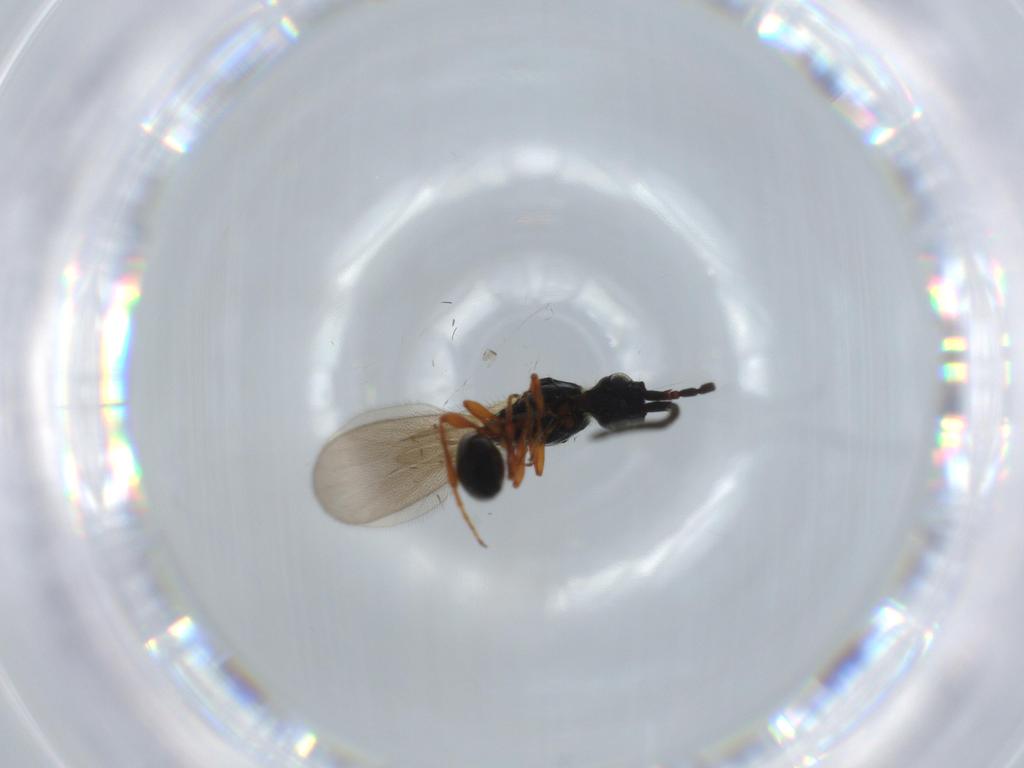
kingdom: Animalia
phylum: Arthropoda
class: Insecta
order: Hymenoptera
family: Diapriidae
